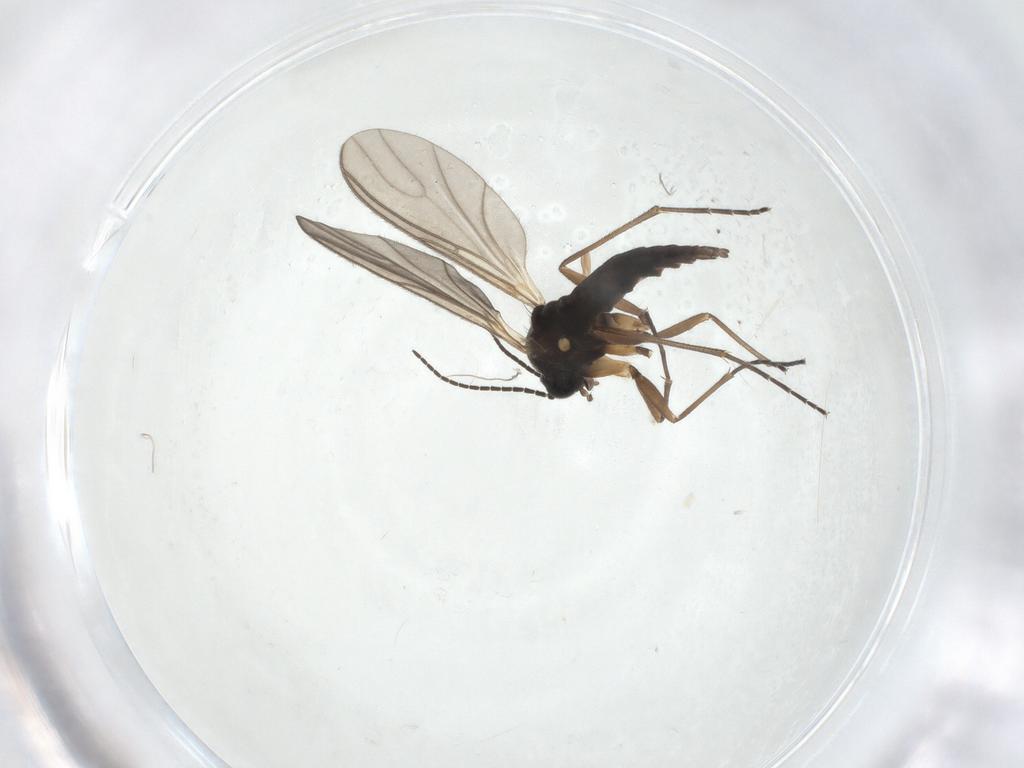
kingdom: Animalia
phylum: Arthropoda
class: Insecta
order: Diptera
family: Sciaridae
